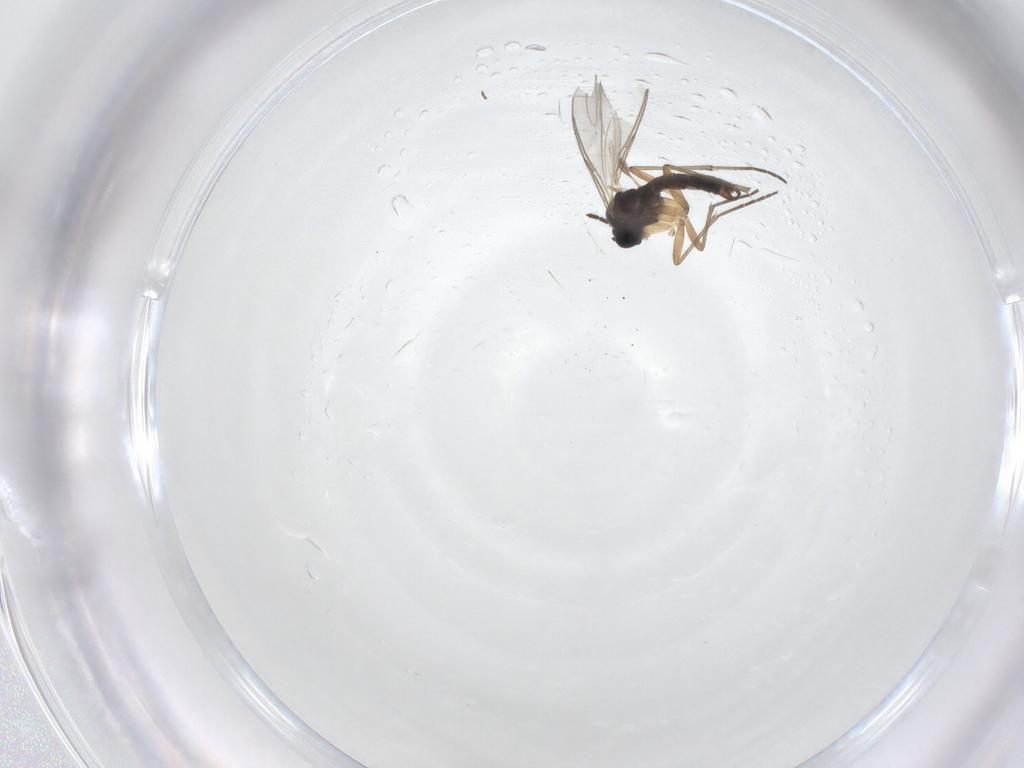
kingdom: Animalia
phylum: Arthropoda
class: Insecta
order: Diptera
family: Sciaridae
